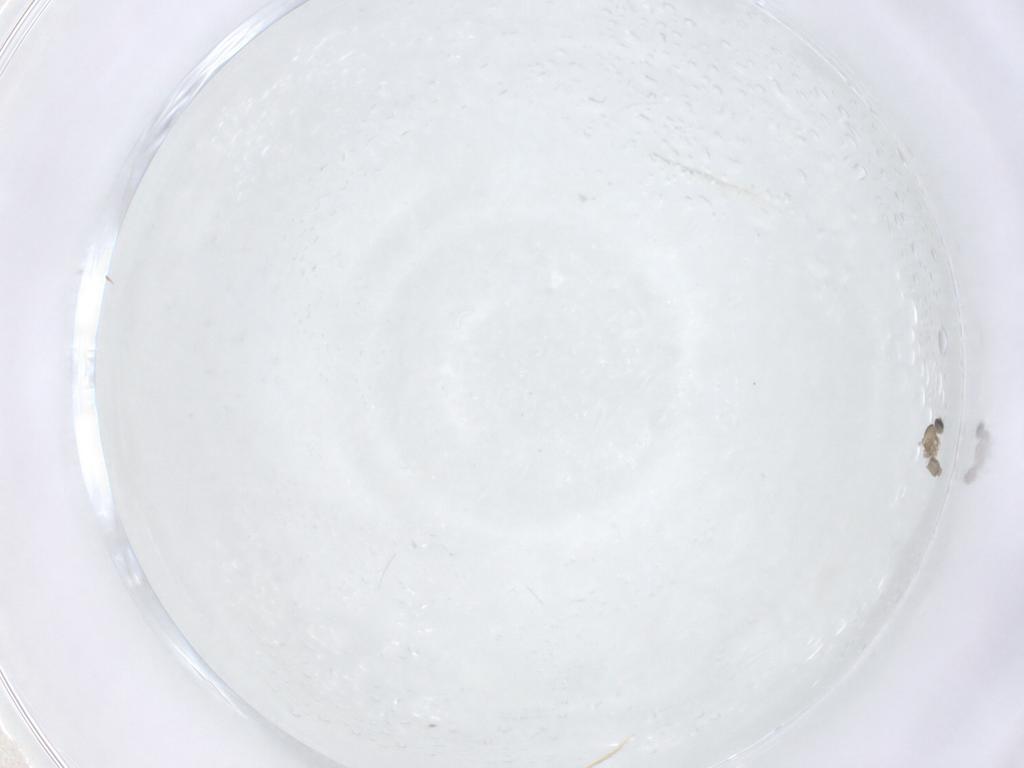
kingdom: Animalia
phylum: Arthropoda
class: Insecta
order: Diptera
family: Cecidomyiidae
